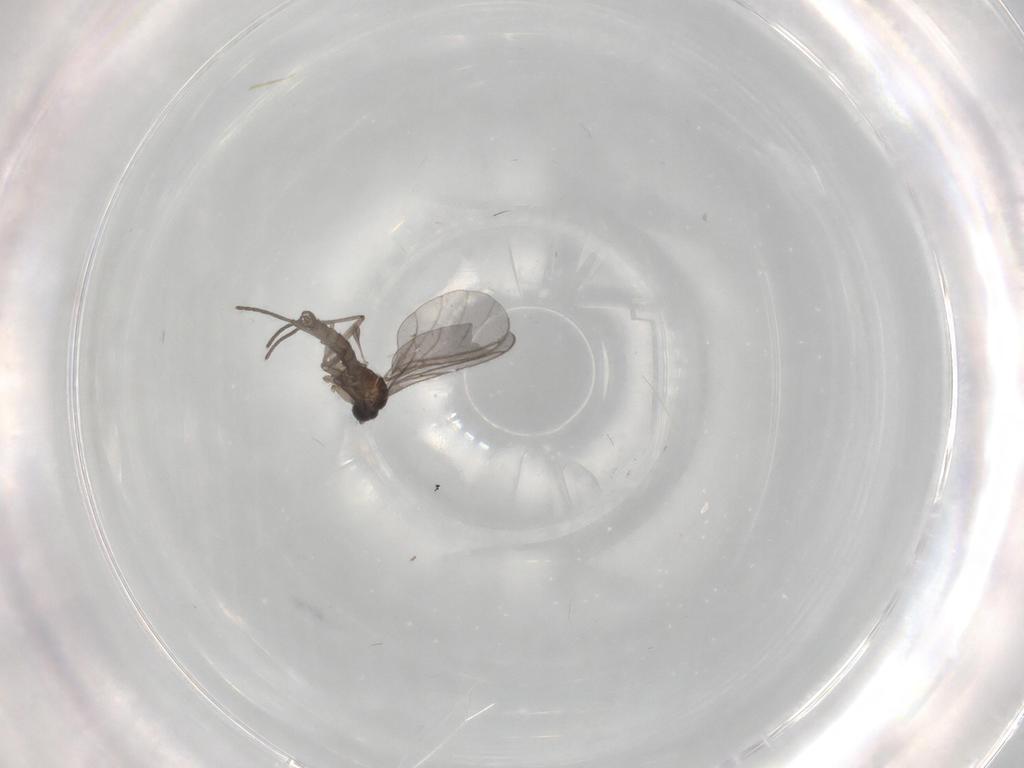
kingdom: Animalia
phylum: Arthropoda
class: Insecta
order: Diptera
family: Sciaridae
